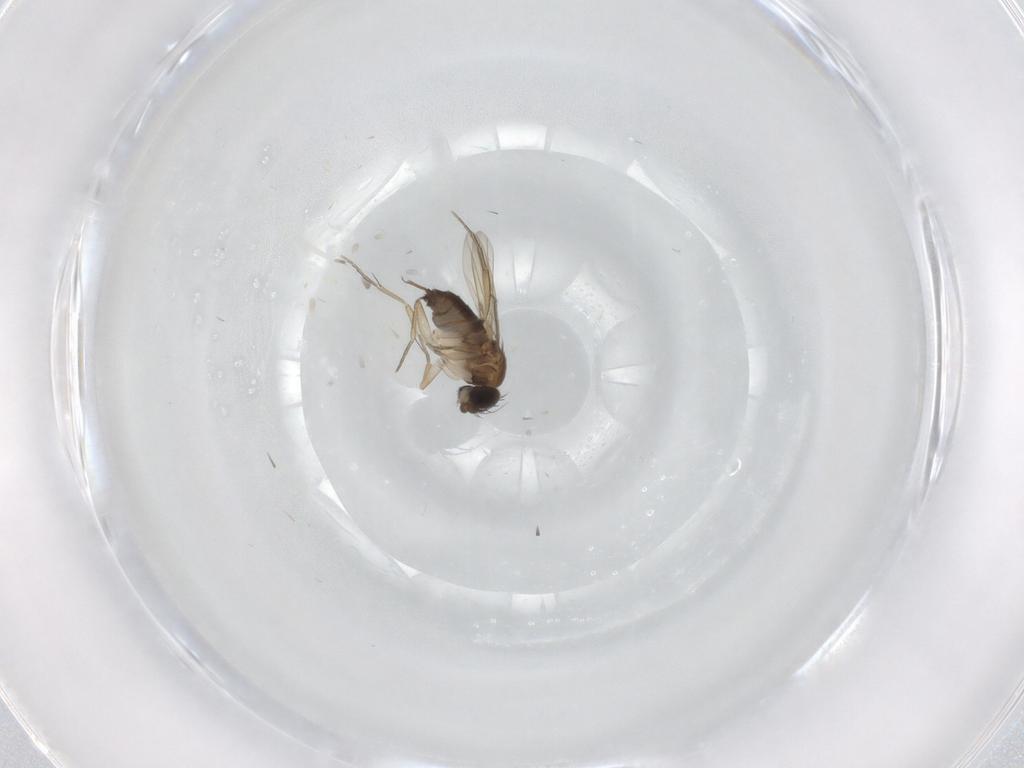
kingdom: Animalia
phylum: Arthropoda
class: Insecta
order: Diptera
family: Phoridae
